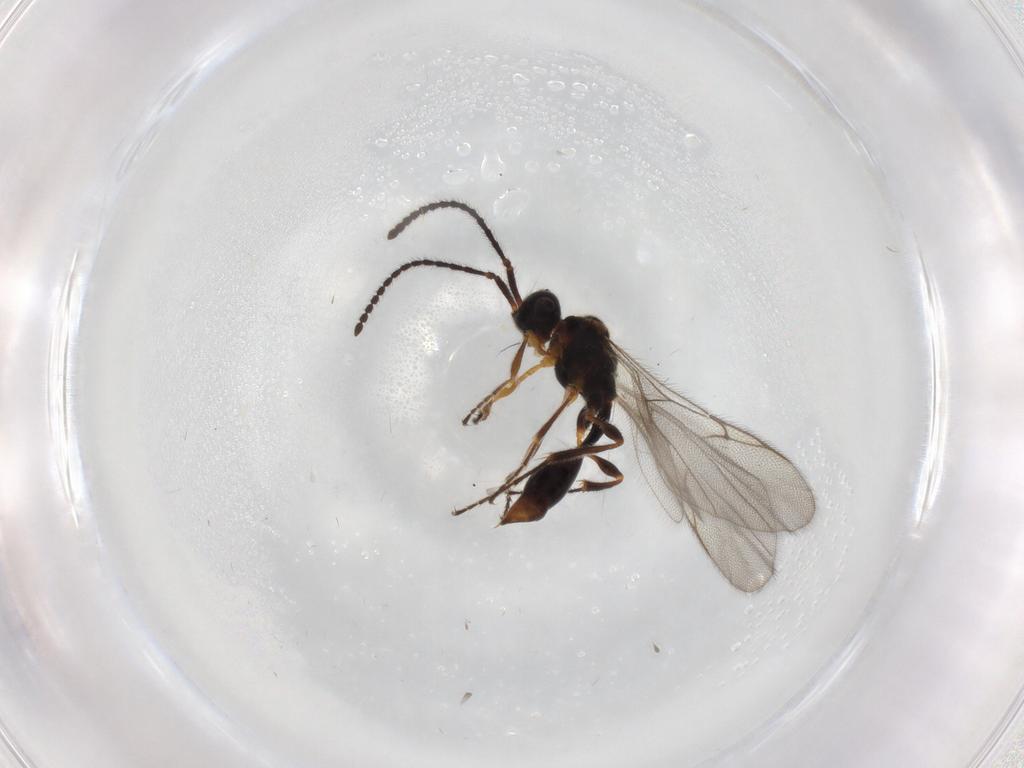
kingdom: Animalia
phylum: Arthropoda
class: Insecta
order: Hymenoptera
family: Diapriidae
